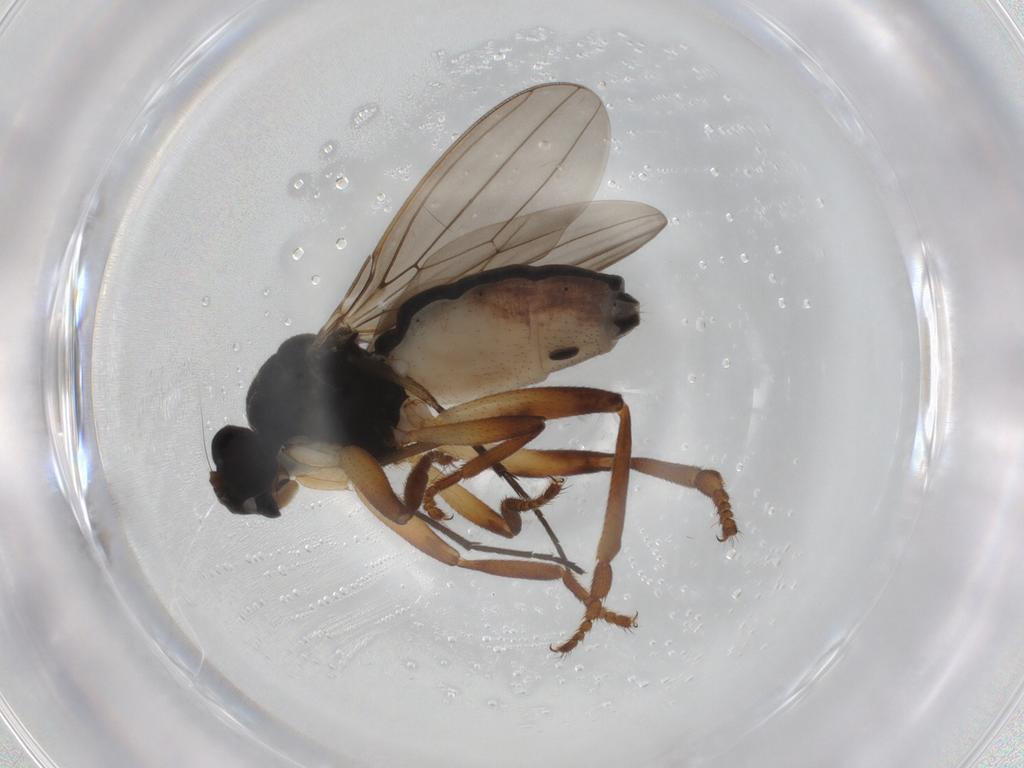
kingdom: Animalia
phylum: Arthropoda
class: Insecta
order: Diptera
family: Sphaeroceridae
